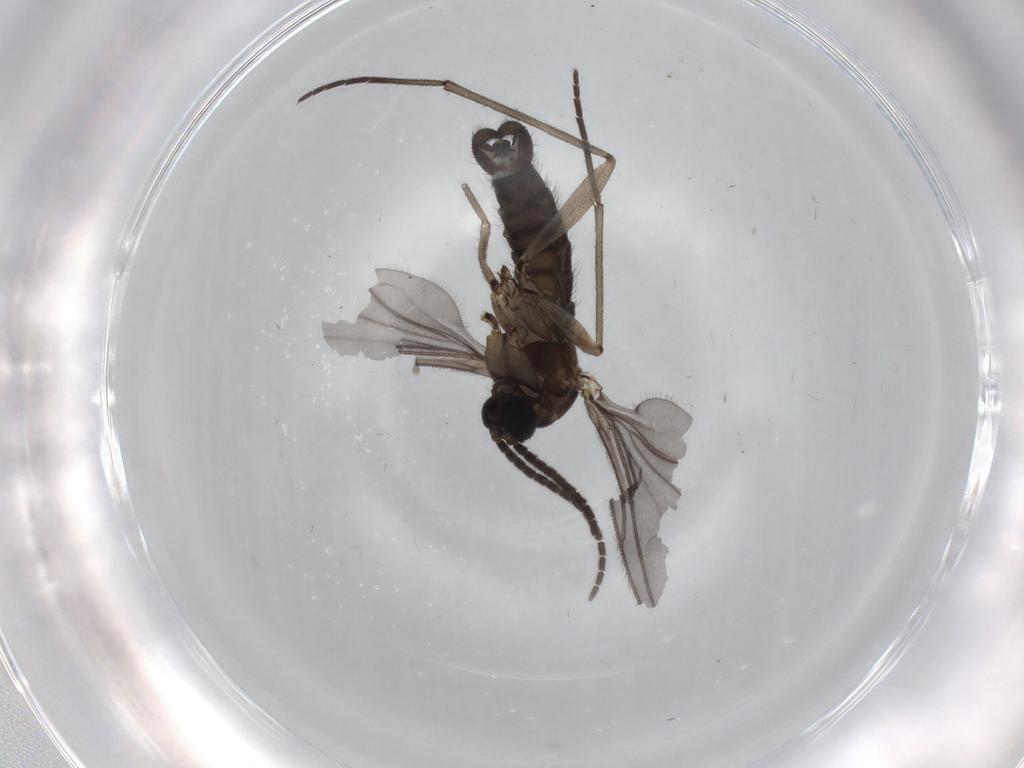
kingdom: Animalia
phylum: Arthropoda
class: Insecta
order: Diptera
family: Sciaridae
